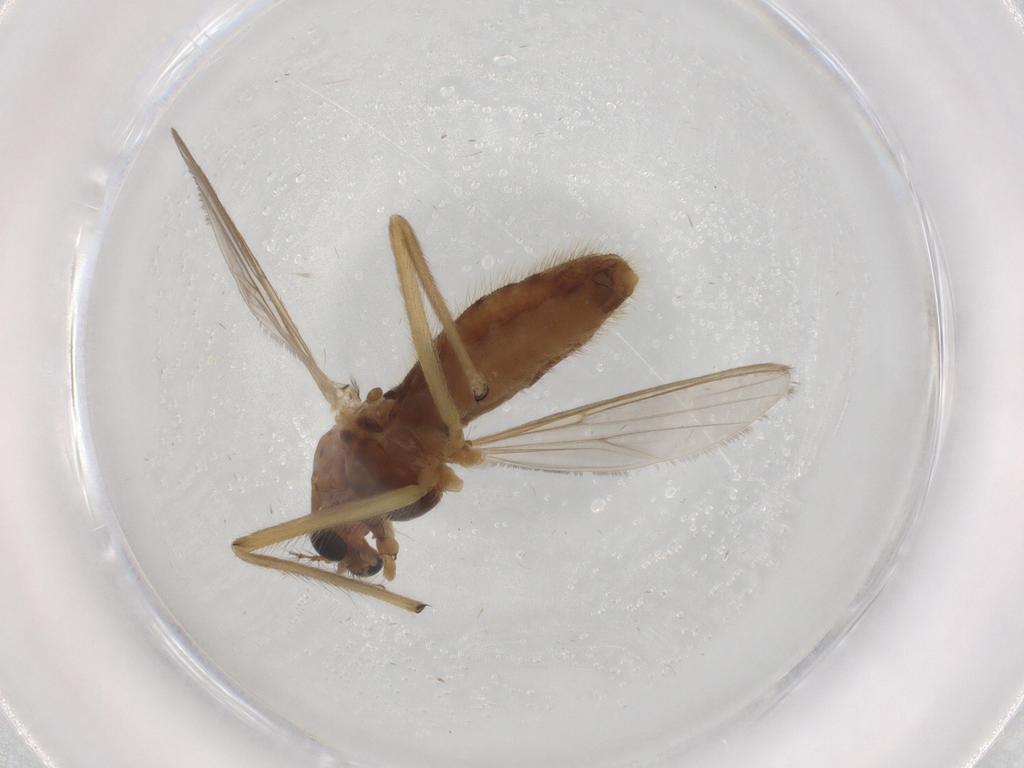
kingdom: Animalia
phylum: Arthropoda
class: Insecta
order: Diptera
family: Chironomidae
